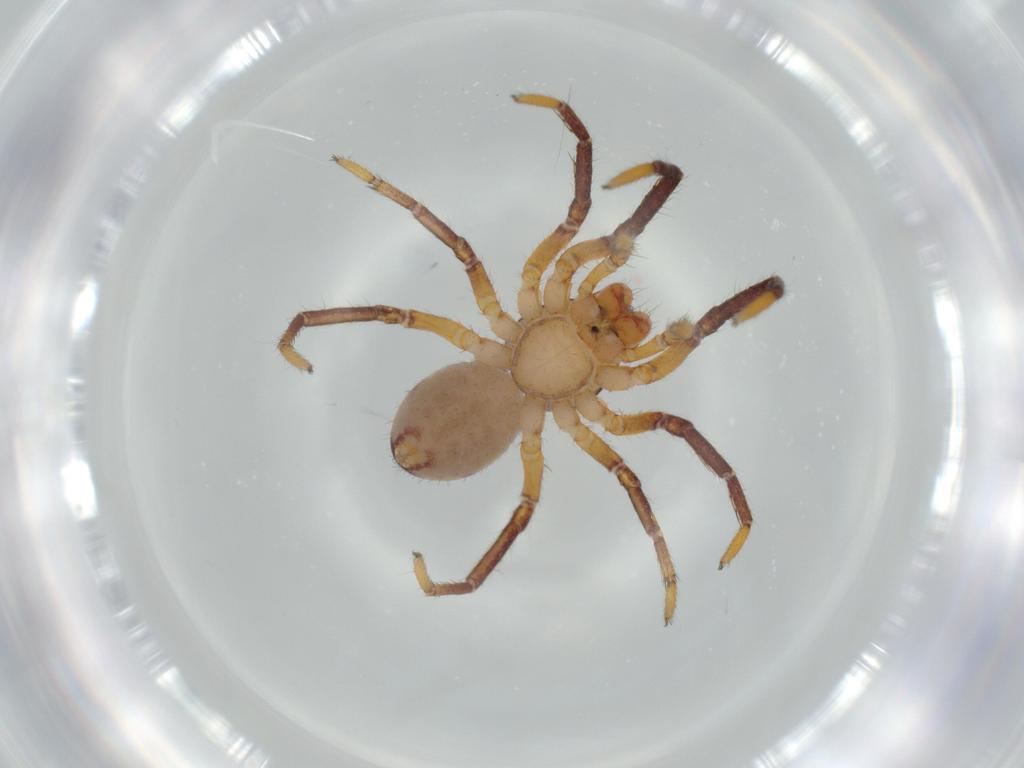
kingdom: Animalia
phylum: Arthropoda
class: Arachnida
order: Araneae
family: Corinnidae
